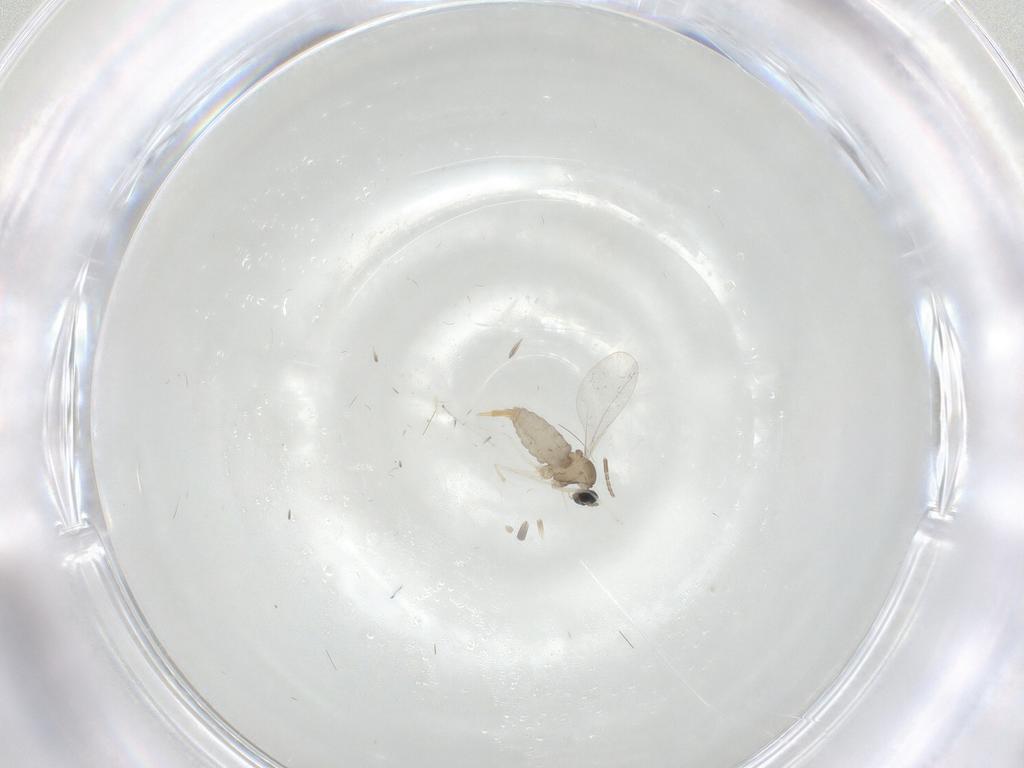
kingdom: Animalia
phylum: Arthropoda
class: Insecta
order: Diptera
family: Cecidomyiidae
